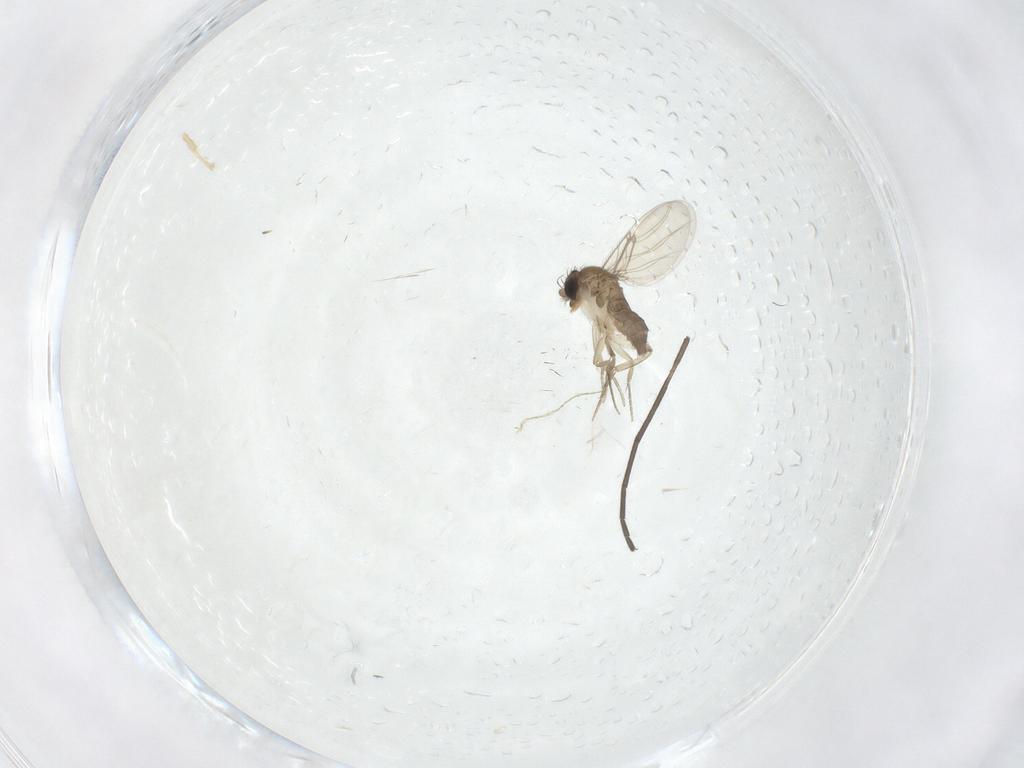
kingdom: Animalia
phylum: Arthropoda
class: Insecta
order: Diptera
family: Phoridae
